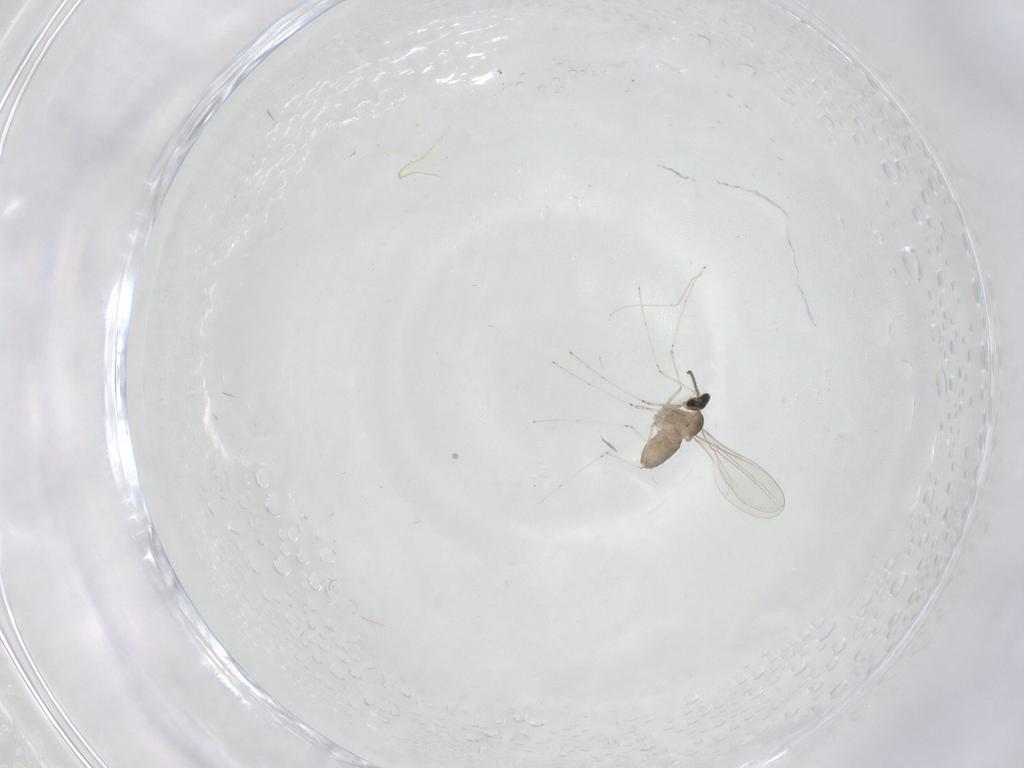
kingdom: Animalia
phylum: Arthropoda
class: Insecta
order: Diptera
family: Cecidomyiidae
